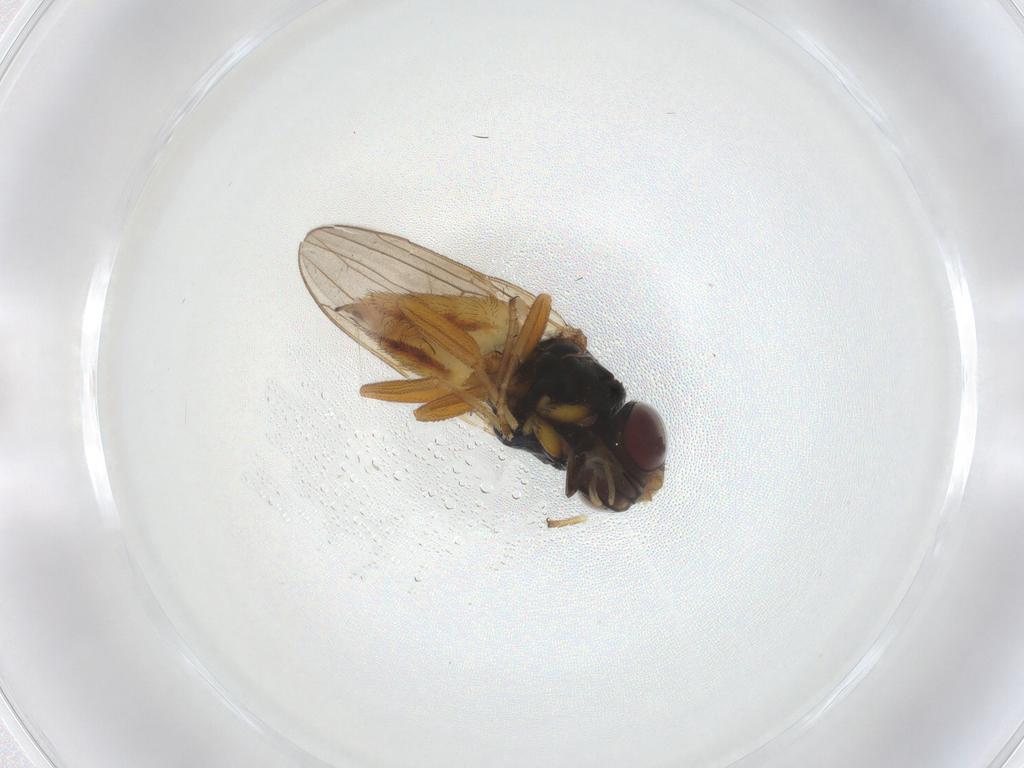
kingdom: Animalia
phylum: Arthropoda
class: Insecta
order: Diptera
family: Chloropidae
